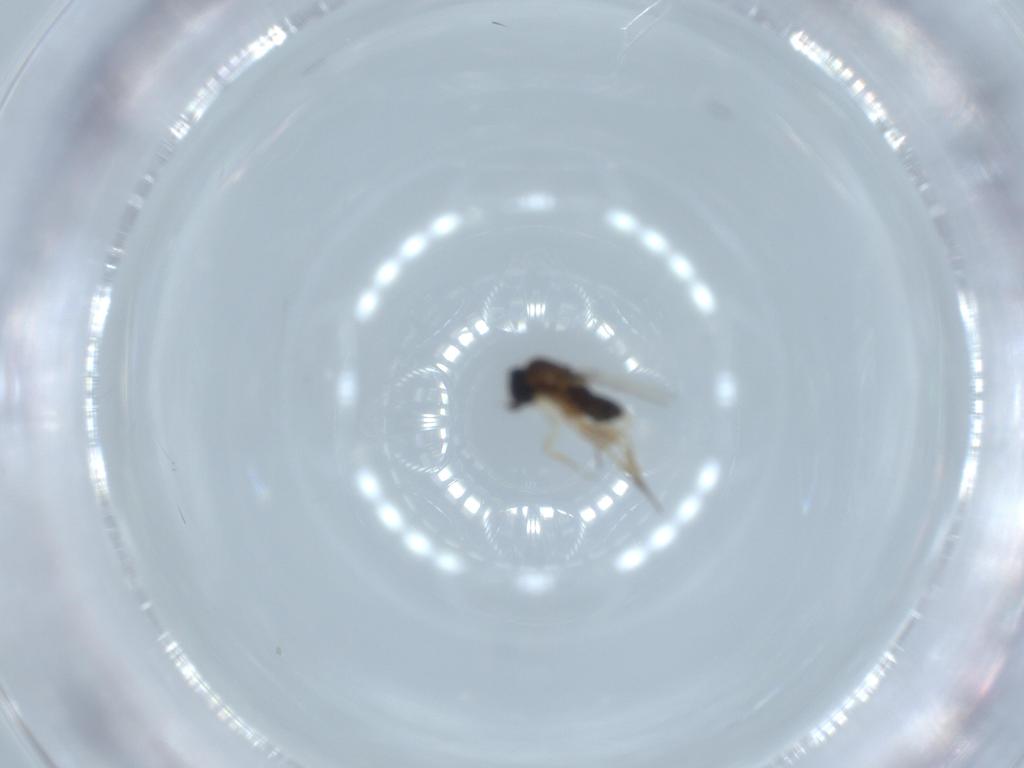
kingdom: Animalia
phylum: Arthropoda
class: Insecta
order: Diptera
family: Phoridae
